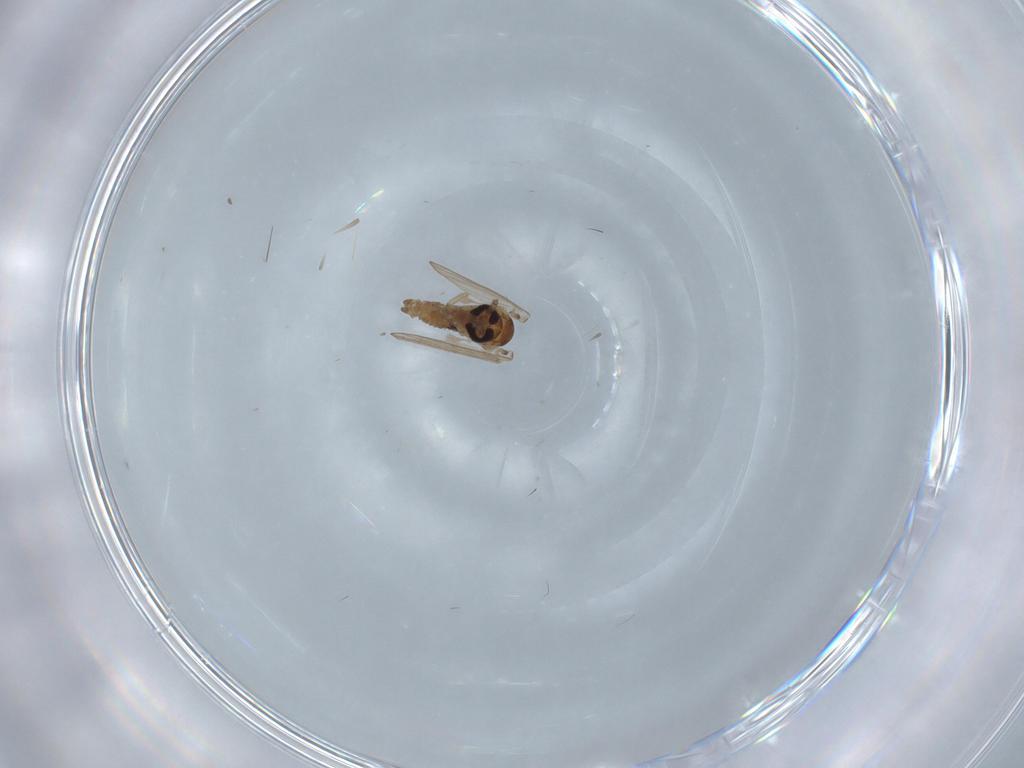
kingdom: Animalia
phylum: Arthropoda
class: Insecta
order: Diptera
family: Psychodidae
